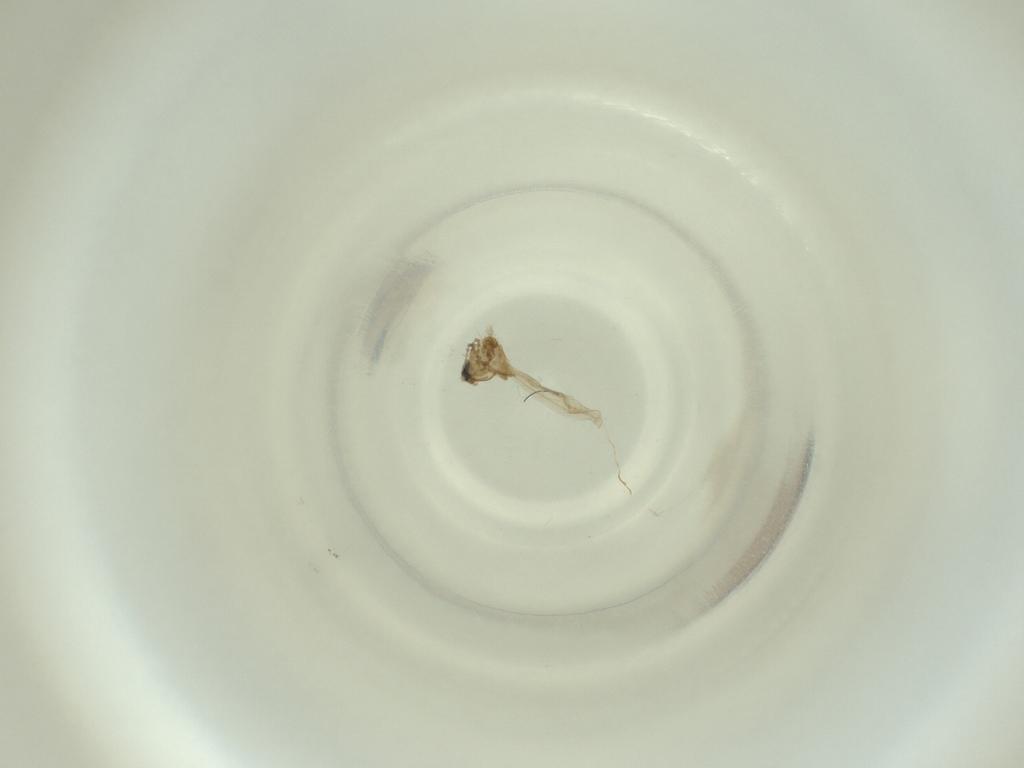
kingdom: Animalia
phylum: Arthropoda
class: Insecta
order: Diptera
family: Cecidomyiidae
